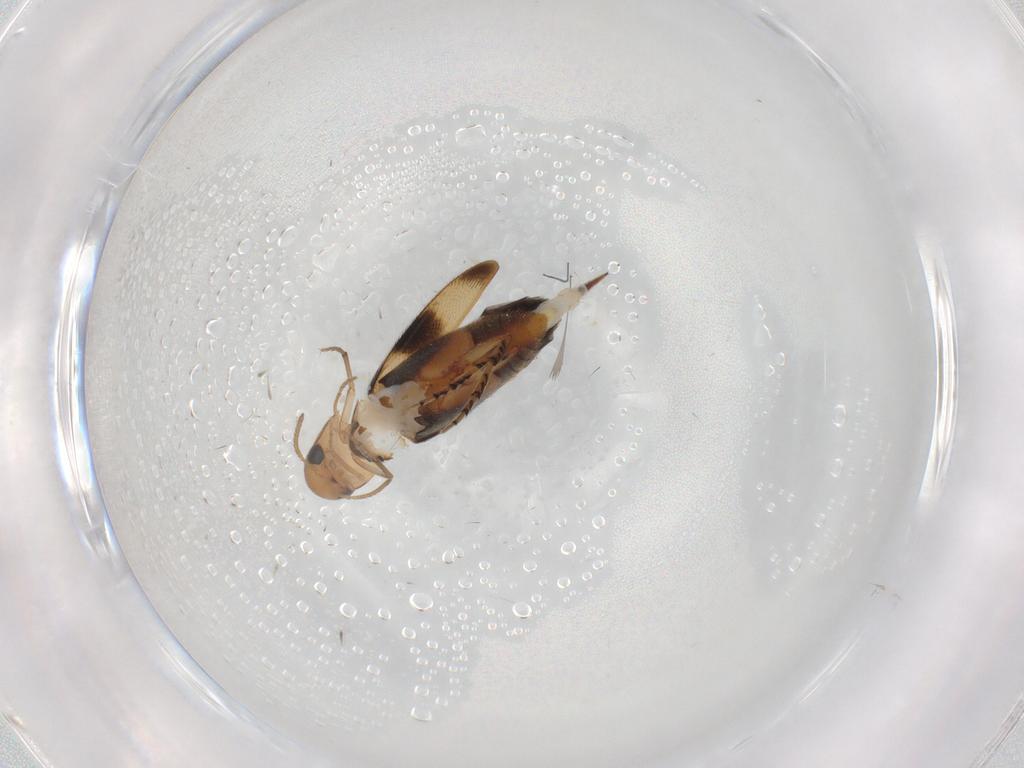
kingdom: Animalia
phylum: Arthropoda
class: Insecta
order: Coleoptera
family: Mordellidae
